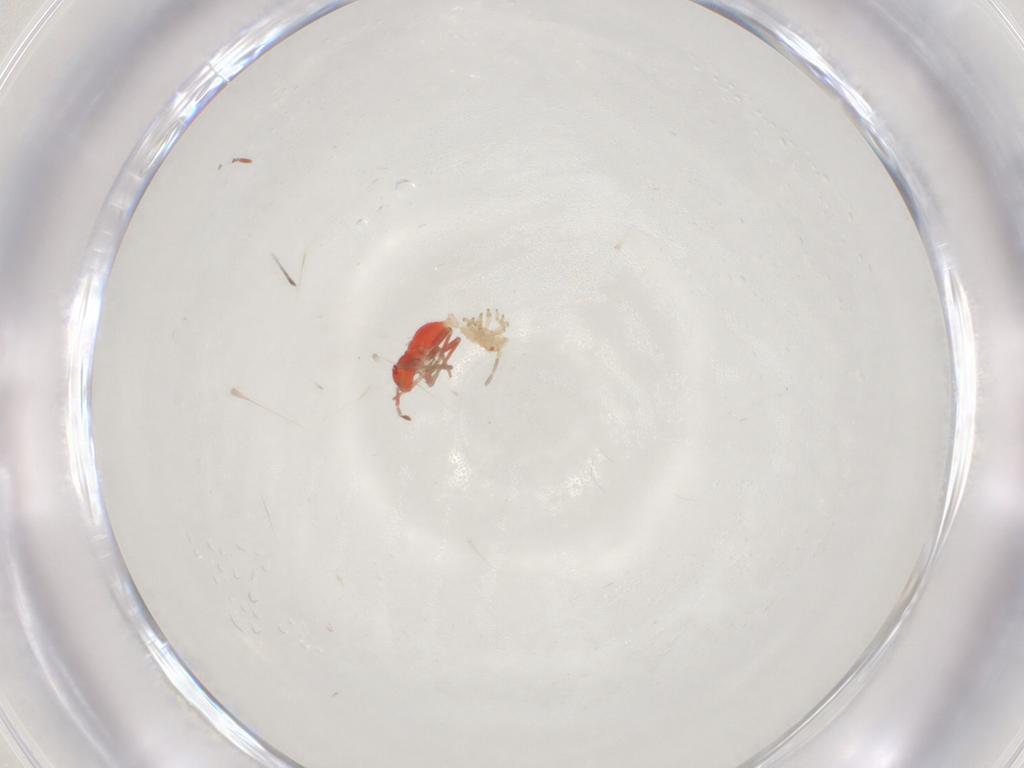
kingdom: Animalia
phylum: Arthropoda
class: Insecta
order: Hemiptera
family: Tingidae
